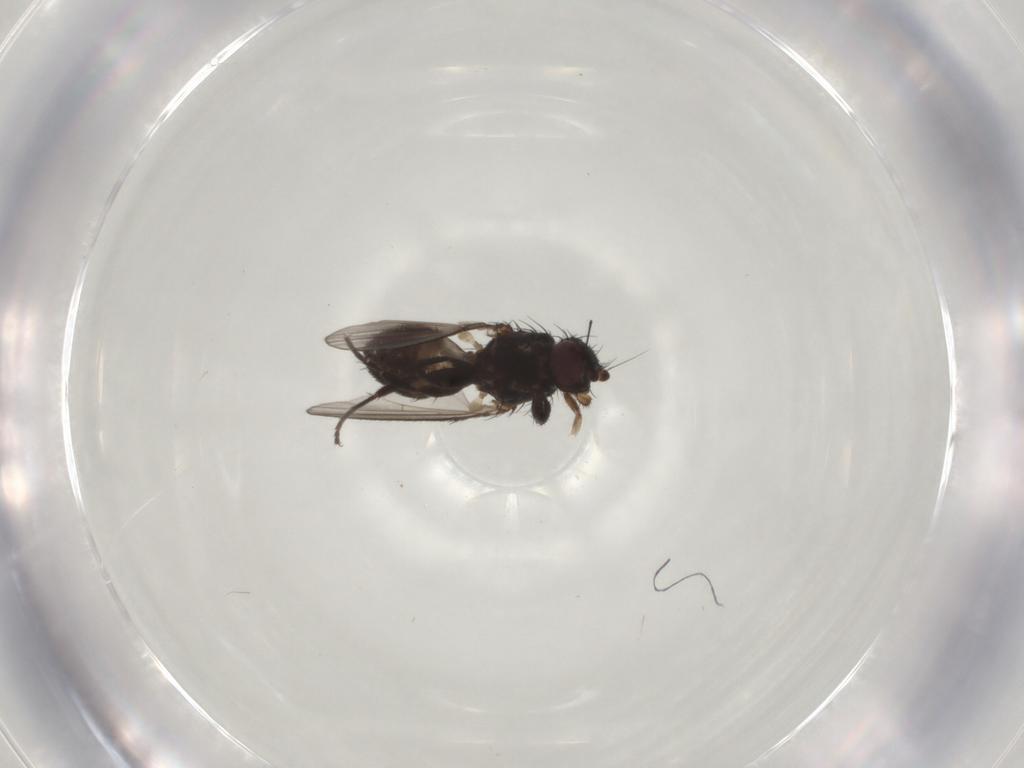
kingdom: Animalia
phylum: Arthropoda
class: Insecta
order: Diptera
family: Milichiidae
